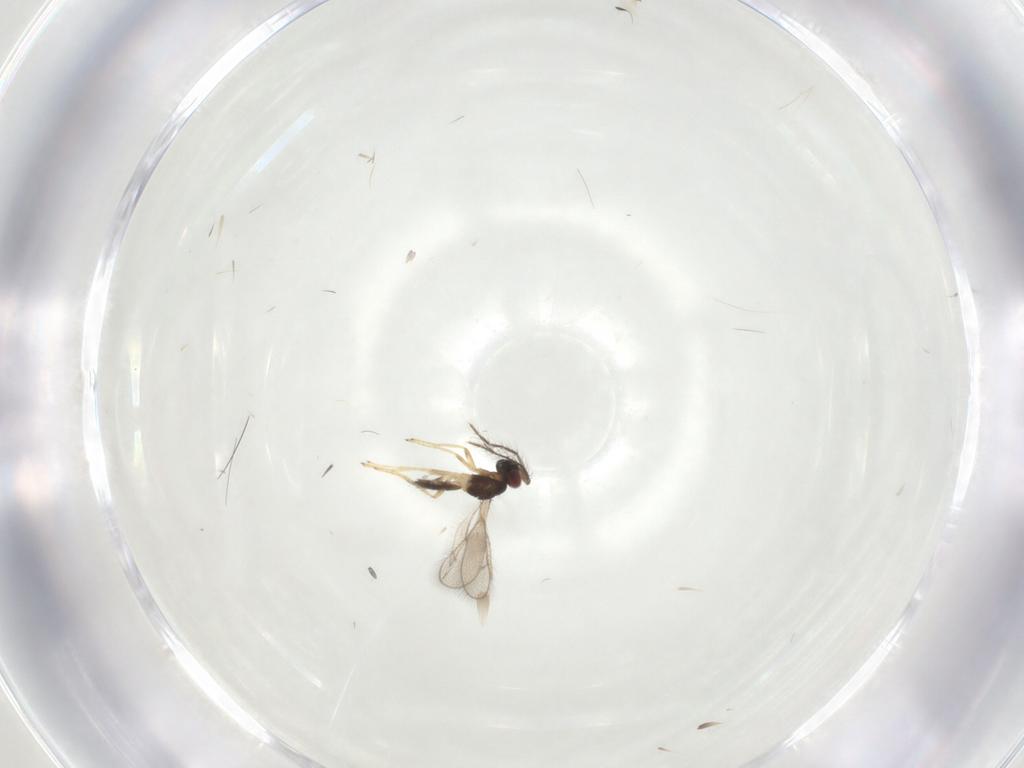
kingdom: Animalia
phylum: Arthropoda
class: Insecta
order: Hymenoptera
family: Eulophidae
